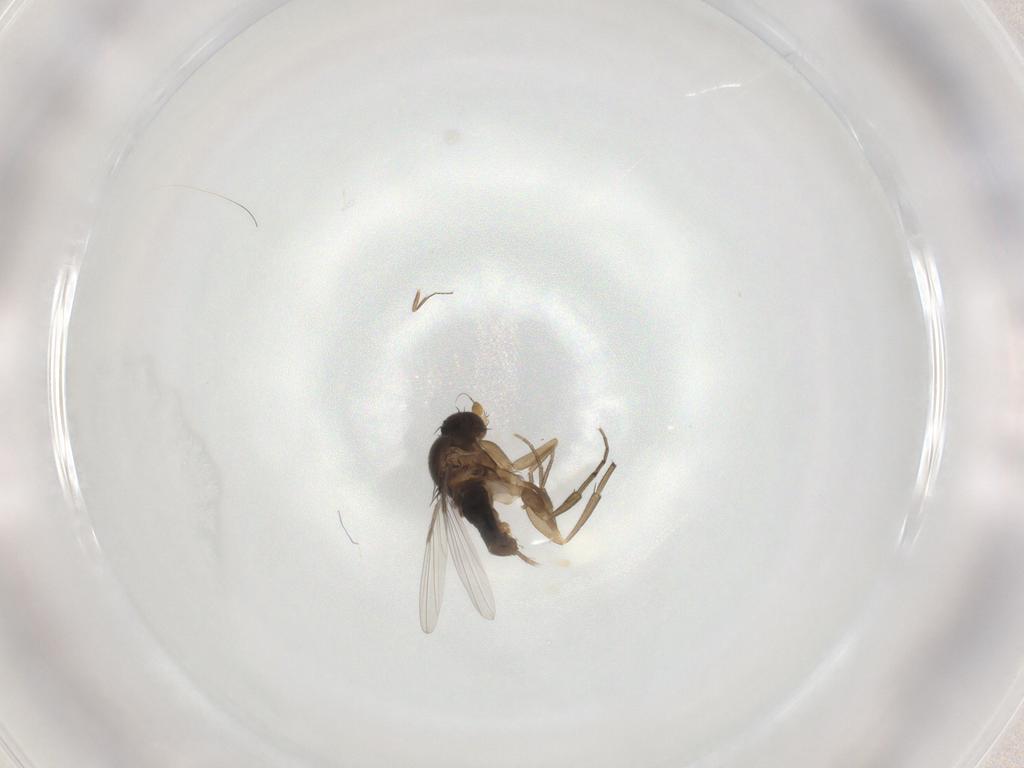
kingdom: Animalia
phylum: Arthropoda
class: Insecta
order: Diptera
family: Phoridae
